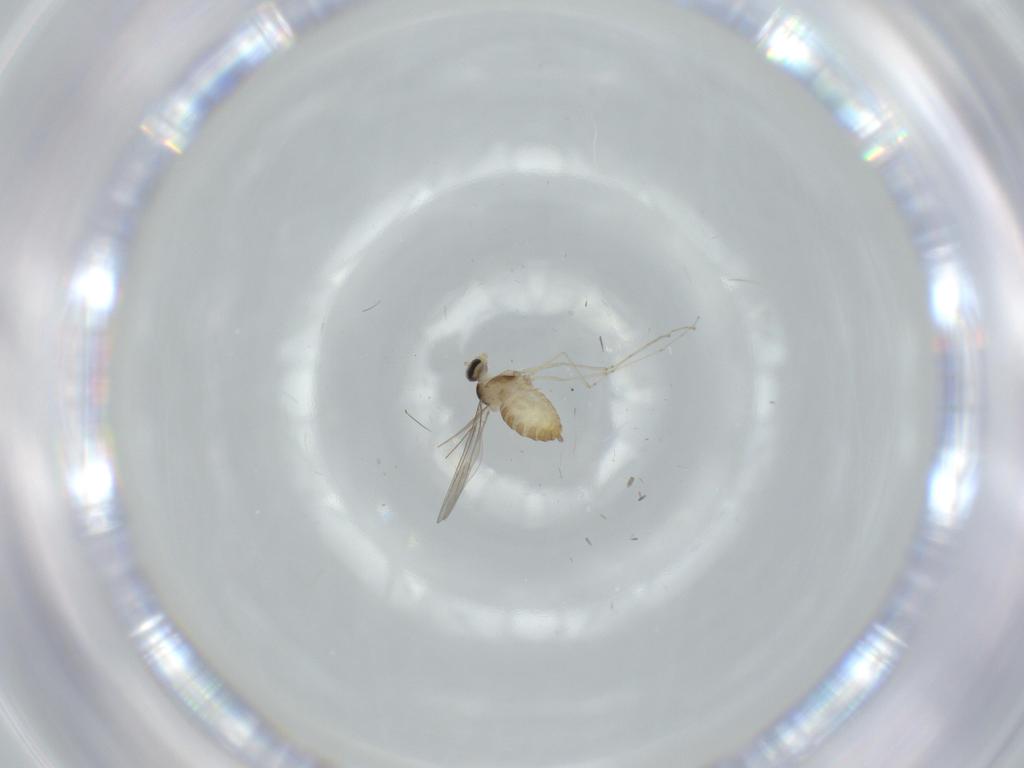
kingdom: Animalia
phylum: Arthropoda
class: Insecta
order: Diptera
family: Cecidomyiidae
